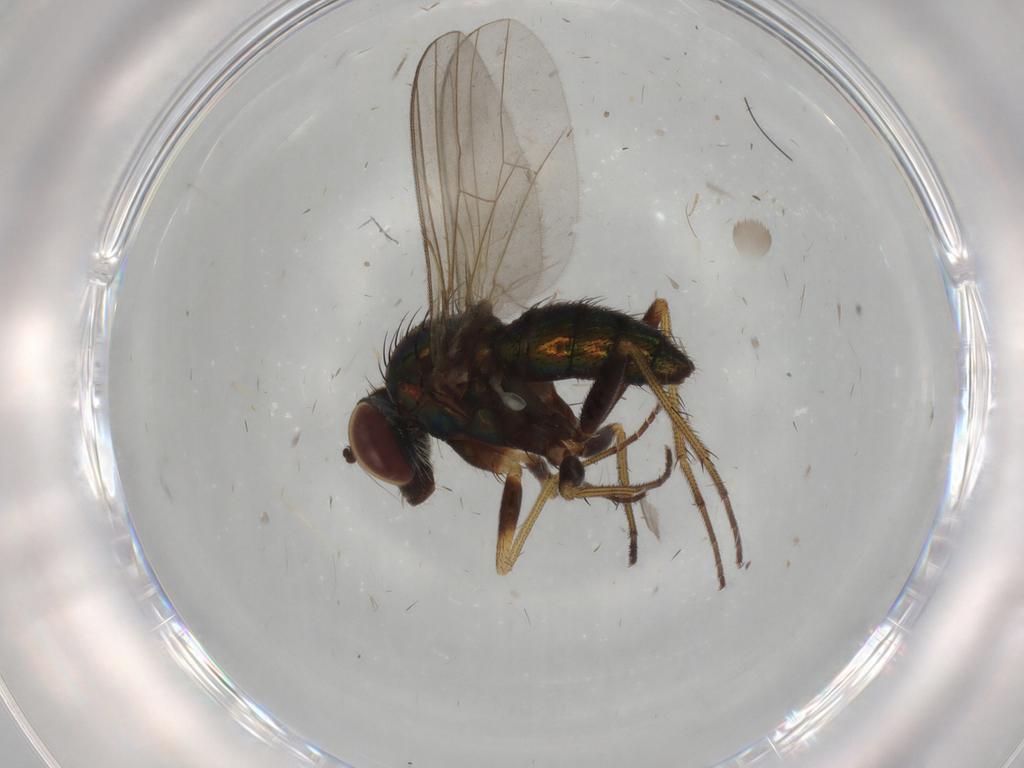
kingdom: Animalia
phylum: Arthropoda
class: Insecta
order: Diptera
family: Dolichopodidae
